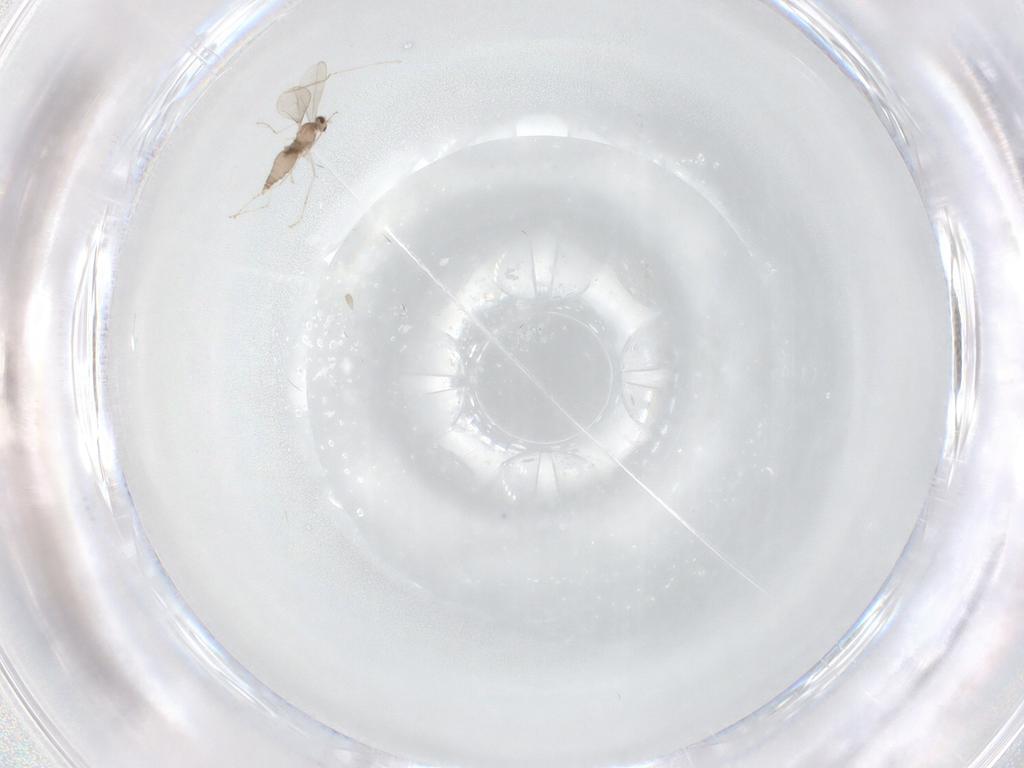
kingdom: Animalia
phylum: Arthropoda
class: Insecta
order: Diptera
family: Cecidomyiidae
